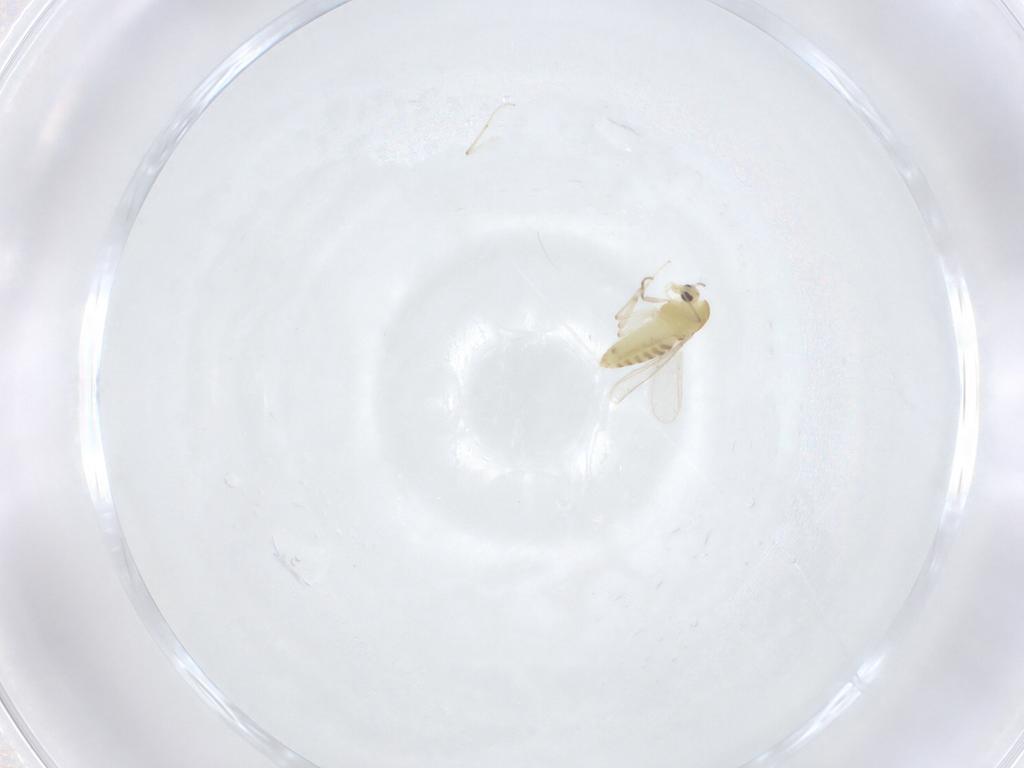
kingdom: Animalia
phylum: Arthropoda
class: Insecta
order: Diptera
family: Chironomidae
